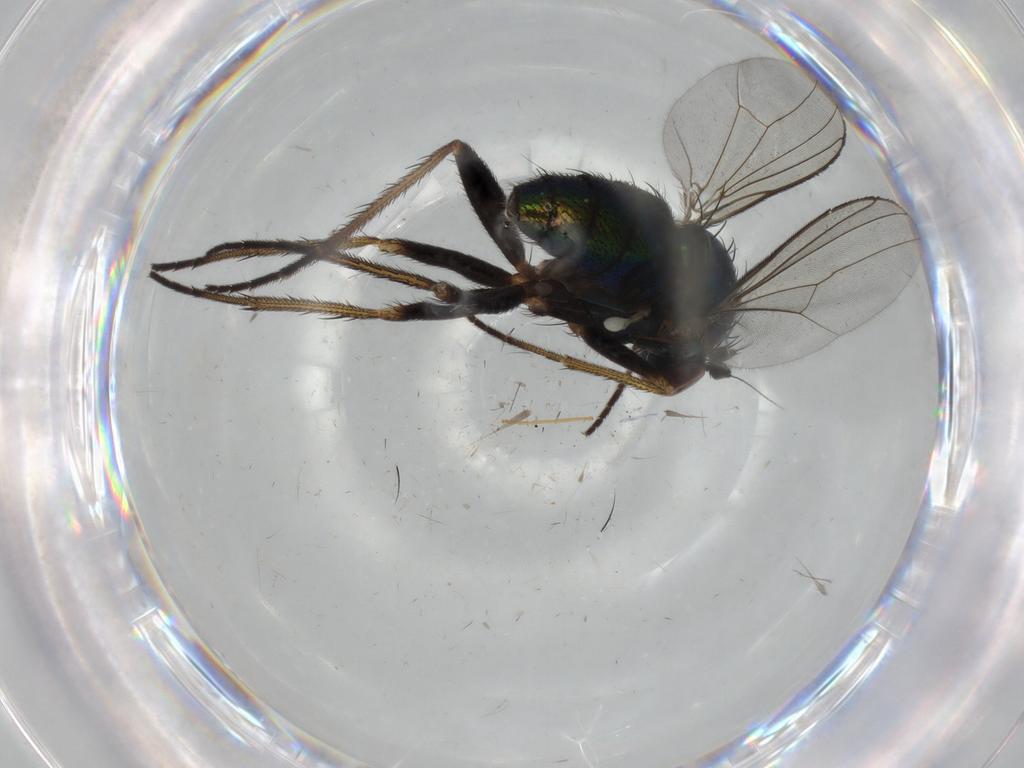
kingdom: Animalia
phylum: Arthropoda
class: Insecta
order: Diptera
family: Dolichopodidae
